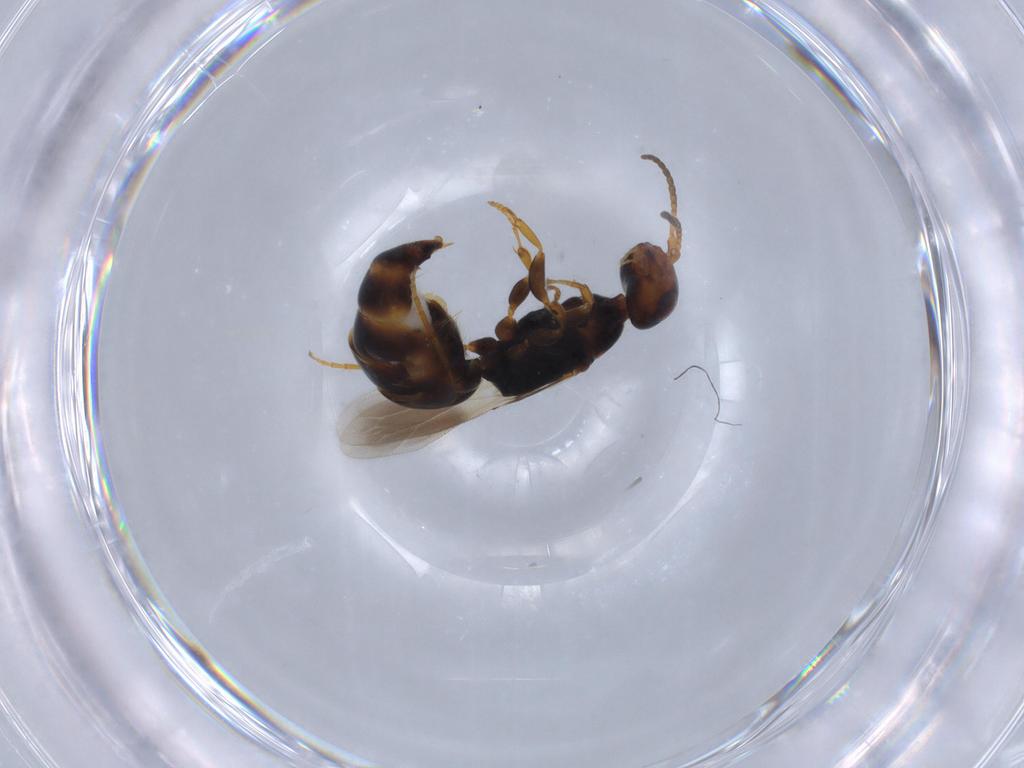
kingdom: Animalia
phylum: Arthropoda
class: Insecta
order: Hymenoptera
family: Bethylidae
